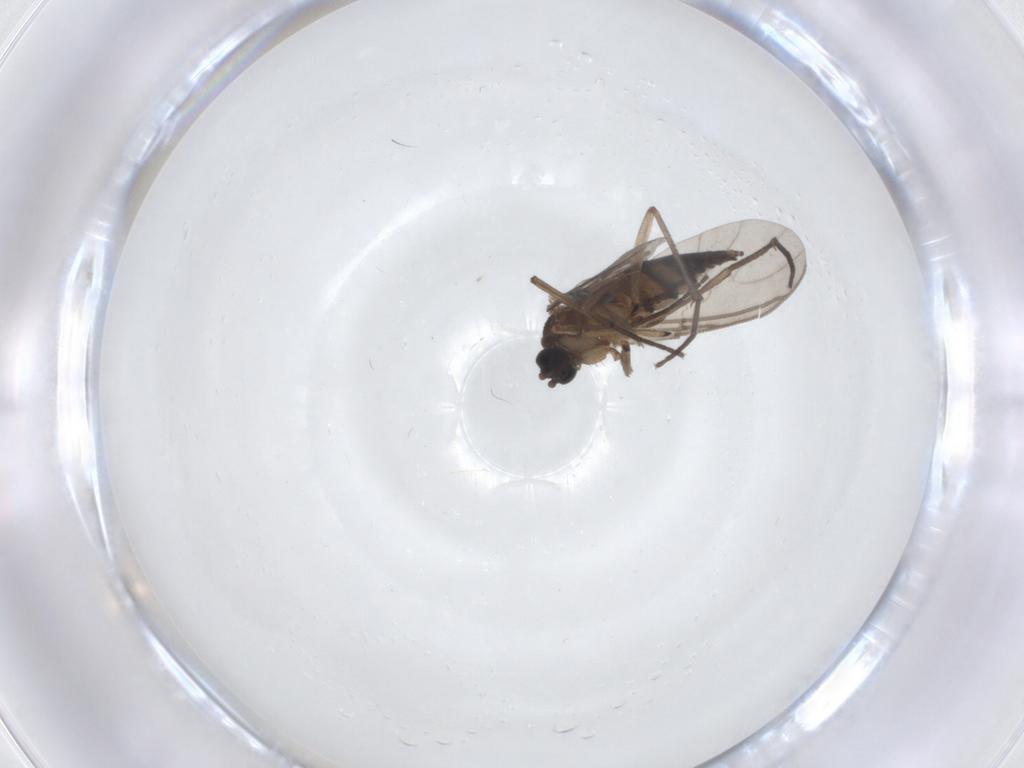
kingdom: Animalia
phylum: Arthropoda
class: Insecta
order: Diptera
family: Sciaridae
